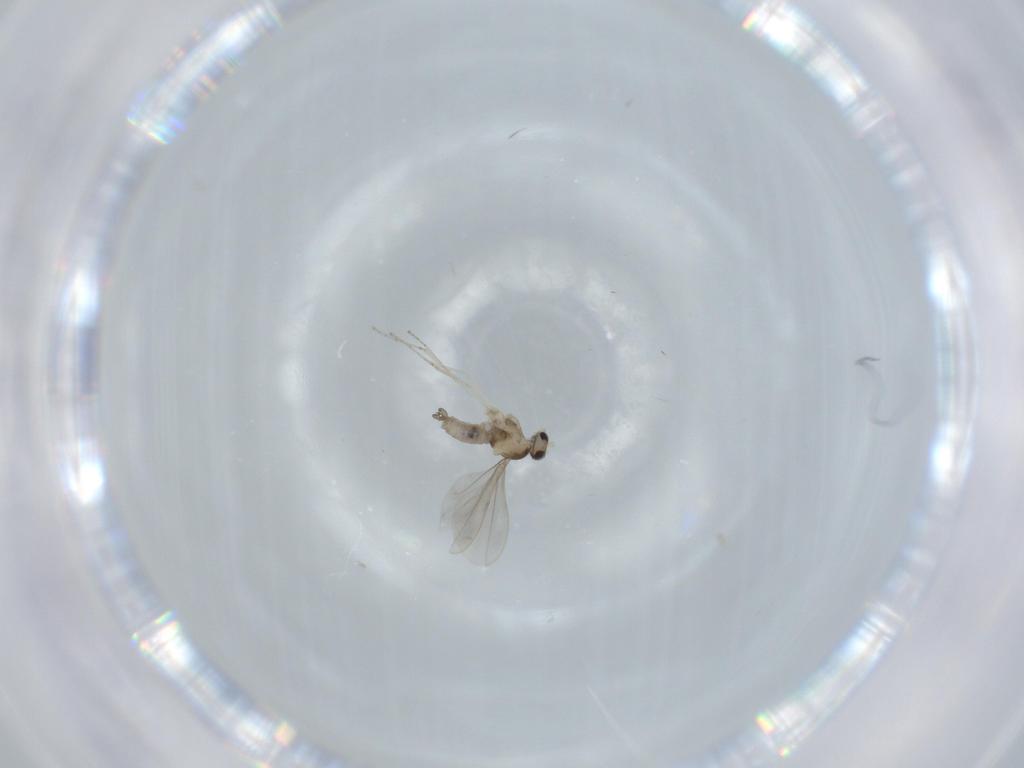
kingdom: Animalia
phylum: Arthropoda
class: Insecta
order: Diptera
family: Cecidomyiidae
